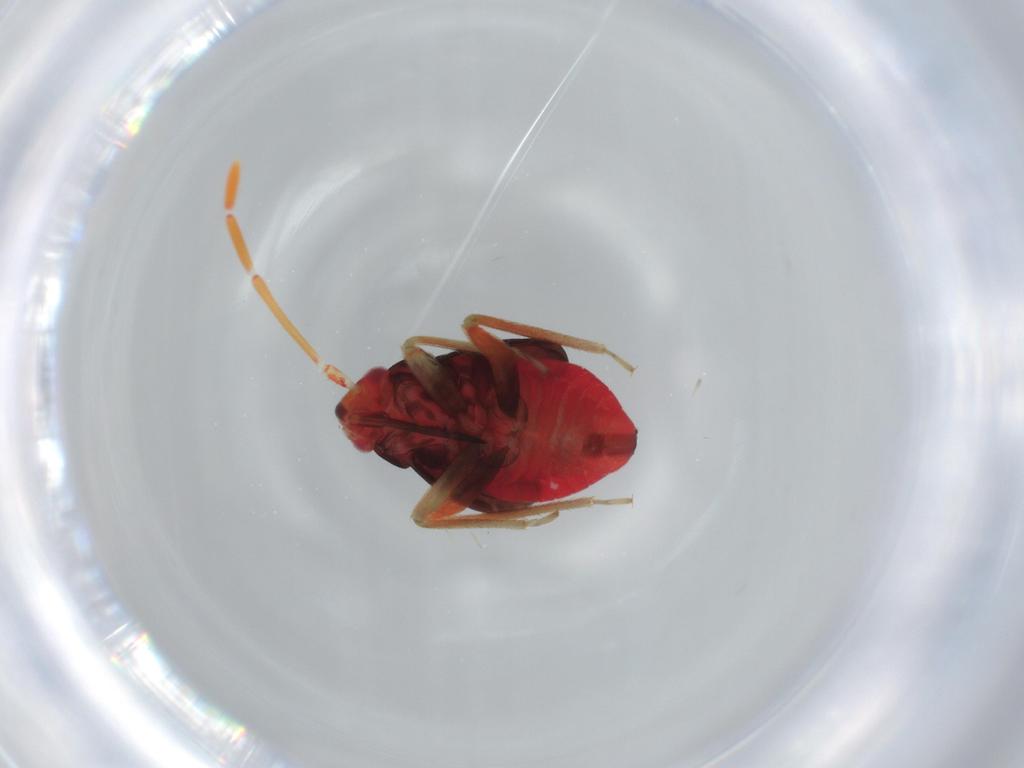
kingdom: Animalia
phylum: Arthropoda
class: Insecta
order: Hemiptera
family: Miridae
